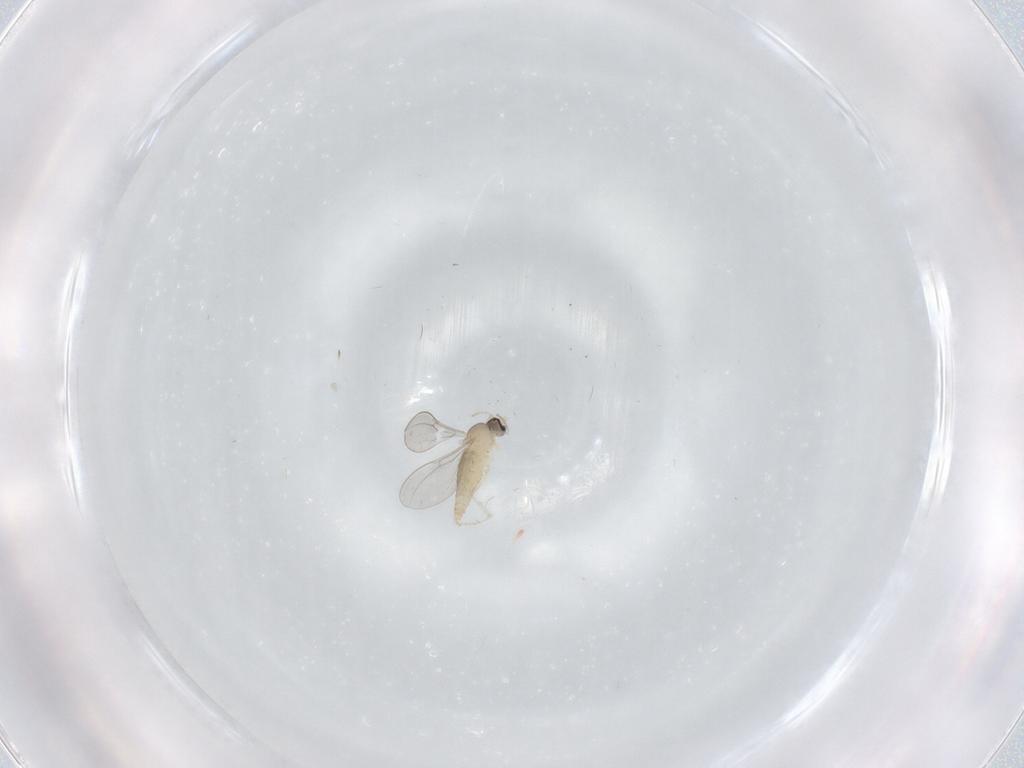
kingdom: Animalia
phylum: Arthropoda
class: Insecta
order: Diptera
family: Cecidomyiidae
